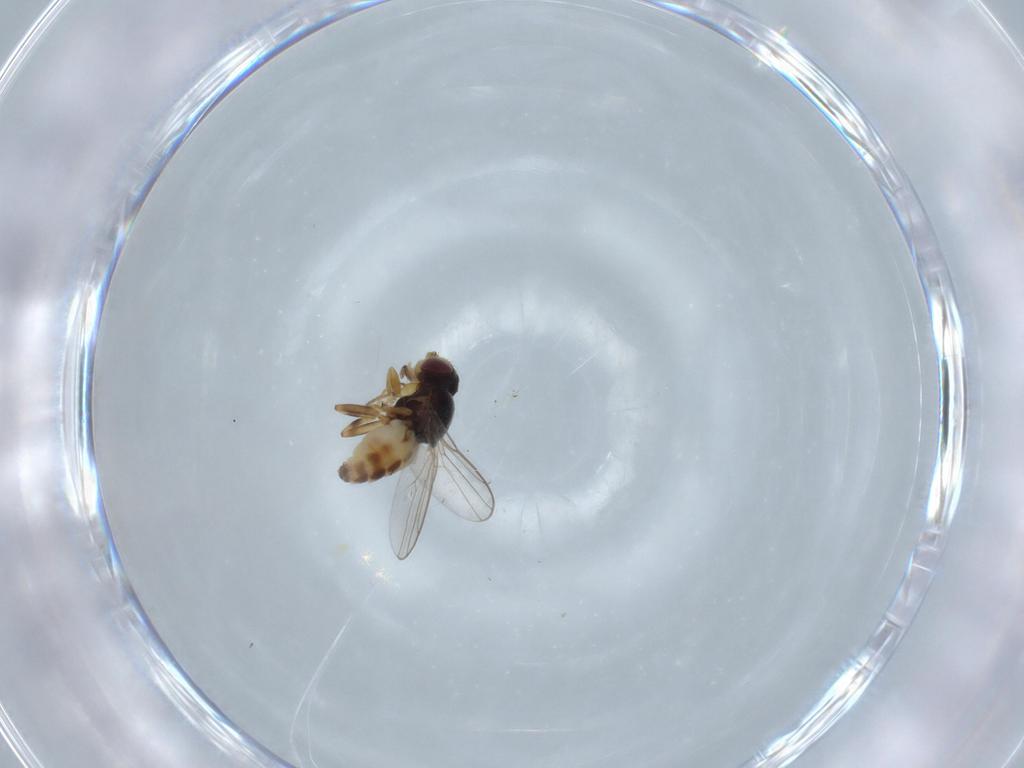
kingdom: Animalia
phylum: Arthropoda
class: Insecta
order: Diptera
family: Chloropidae
